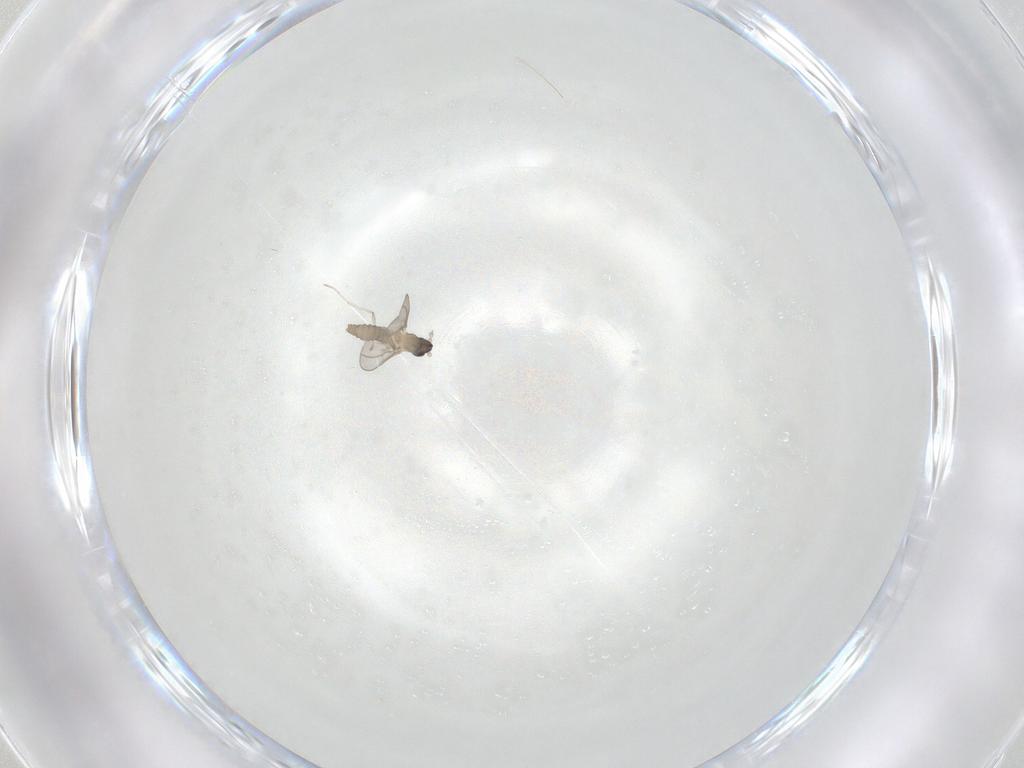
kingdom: Animalia
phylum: Arthropoda
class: Insecta
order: Diptera
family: Cecidomyiidae
